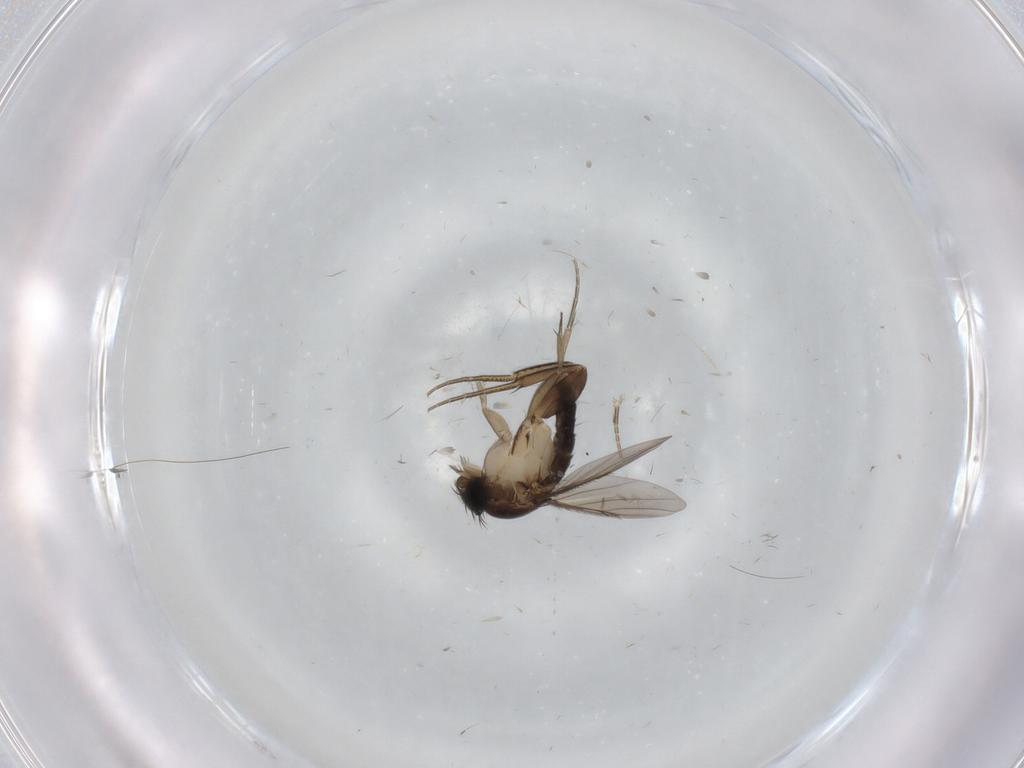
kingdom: Animalia
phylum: Arthropoda
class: Insecta
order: Diptera
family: Phoridae
